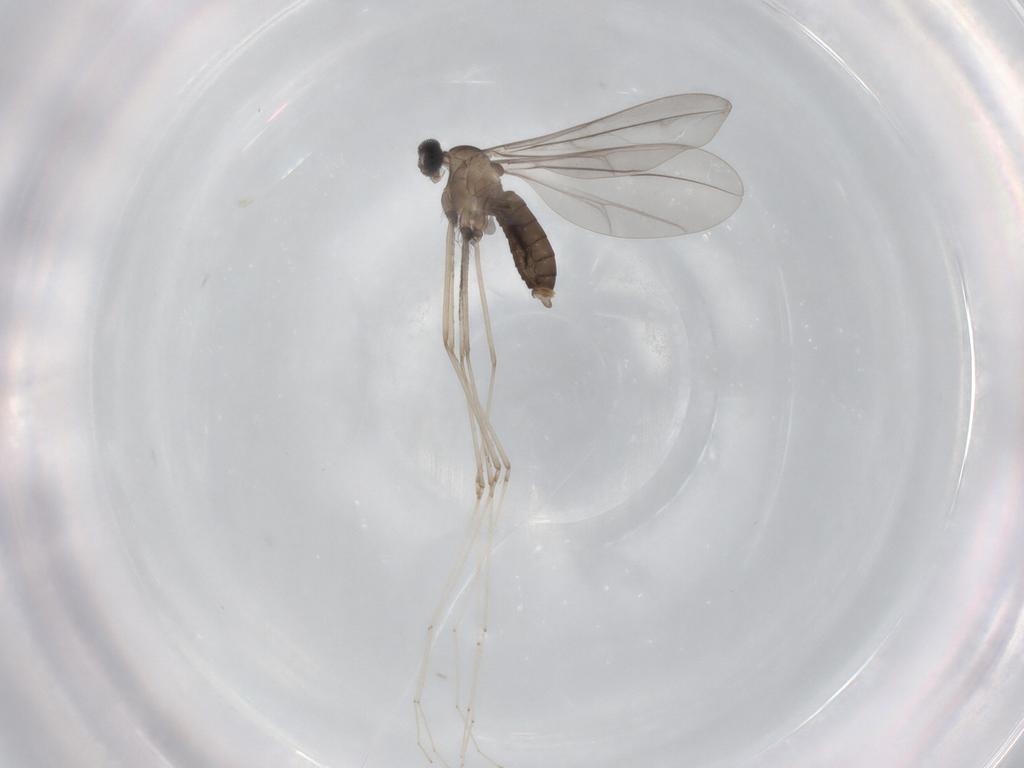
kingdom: Animalia
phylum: Arthropoda
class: Insecta
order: Diptera
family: Cecidomyiidae
